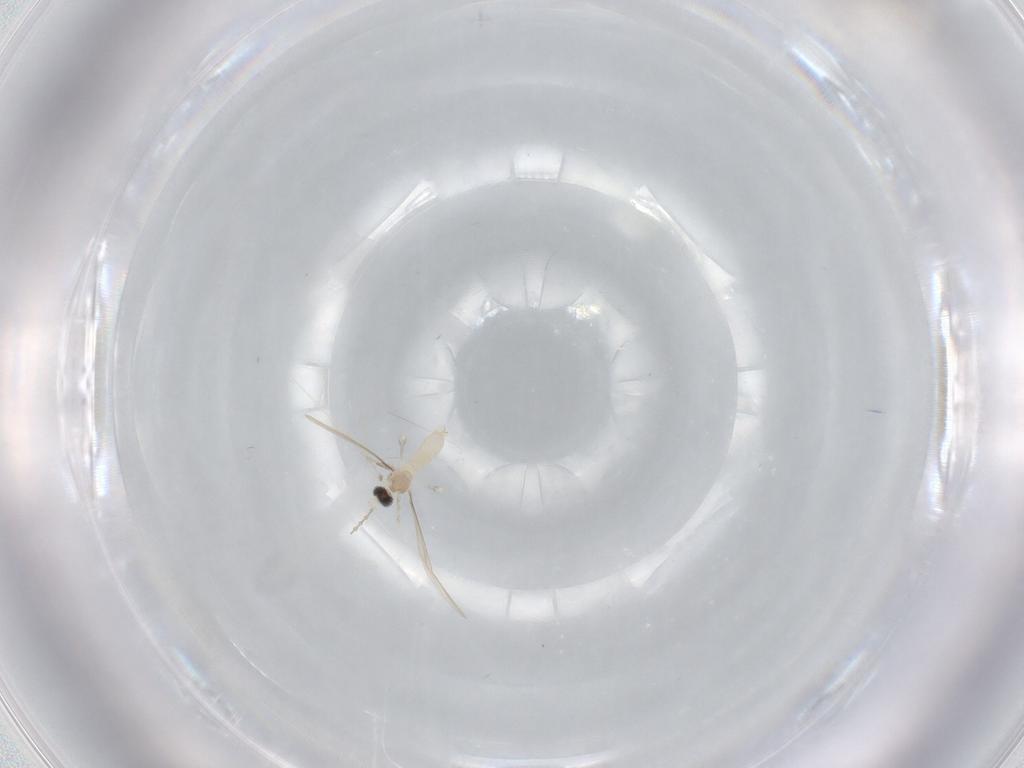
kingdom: Animalia
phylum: Arthropoda
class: Insecta
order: Diptera
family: Cecidomyiidae
